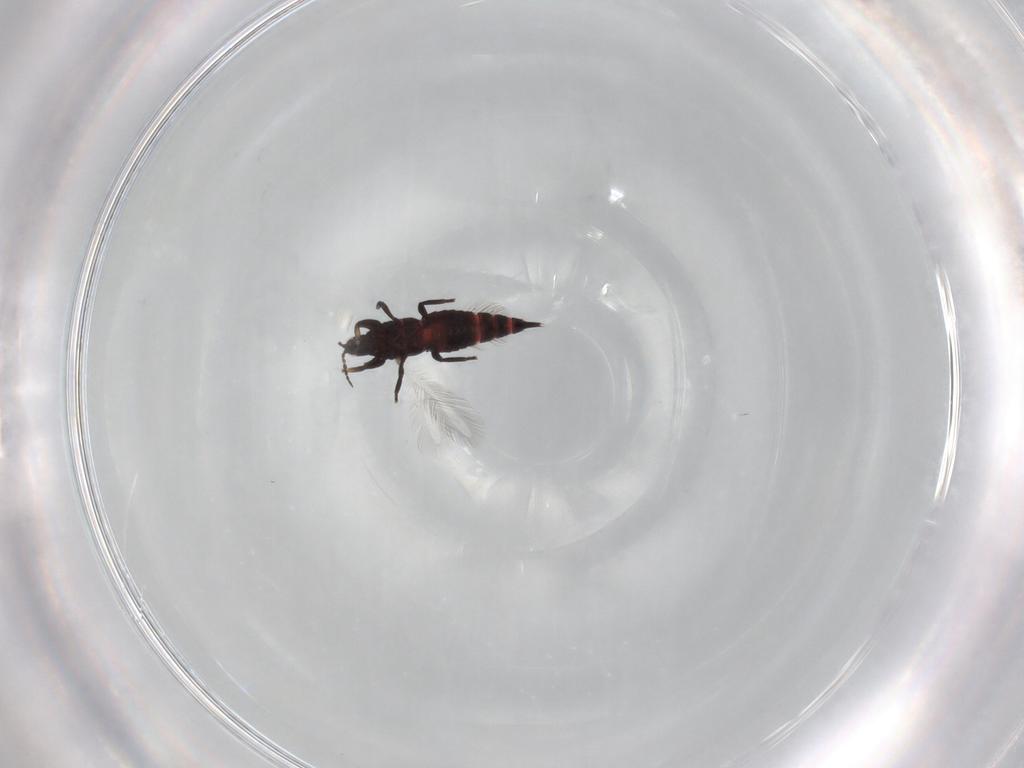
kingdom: Animalia
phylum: Arthropoda
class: Insecta
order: Thysanoptera
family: Phlaeothripidae
